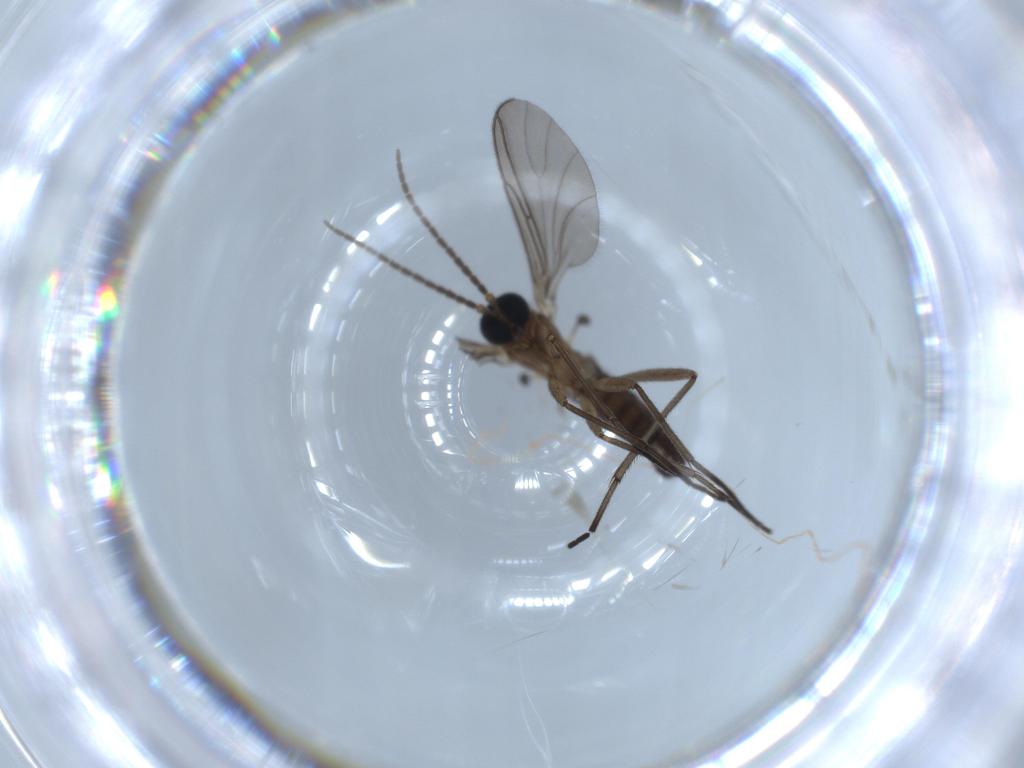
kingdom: Animalia
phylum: Arthropoda
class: Insecta
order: Diptera
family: Sciaridae
